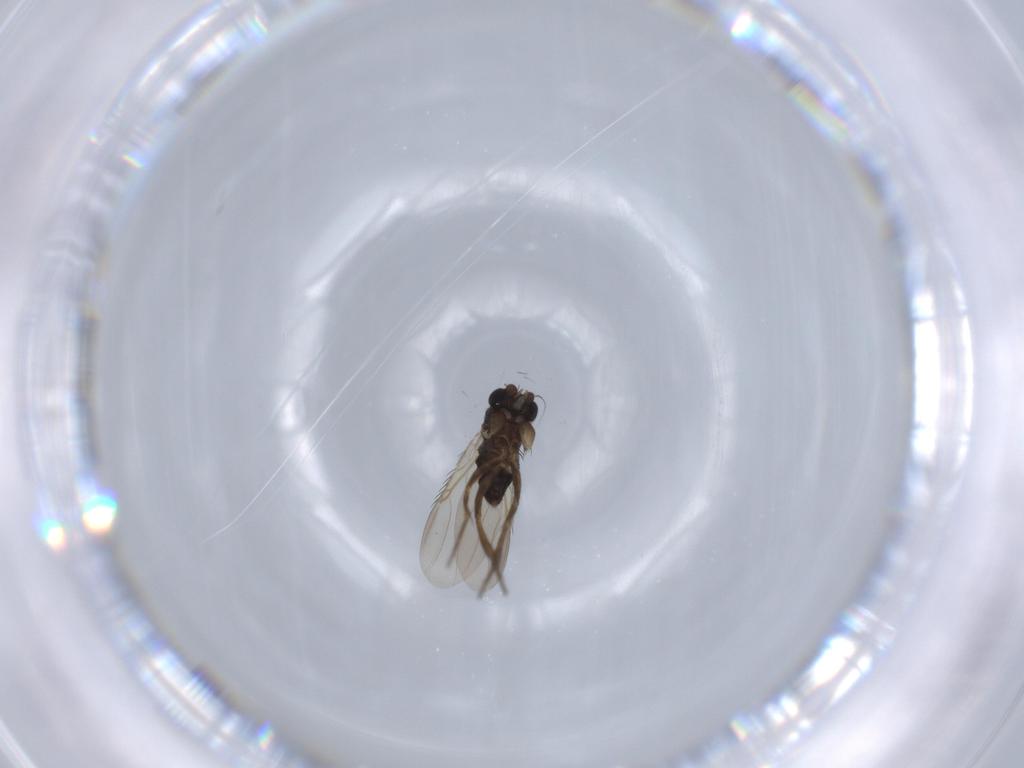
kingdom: Animalia
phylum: Arthropoda
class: Insecta
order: Diptera
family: Phoridae
